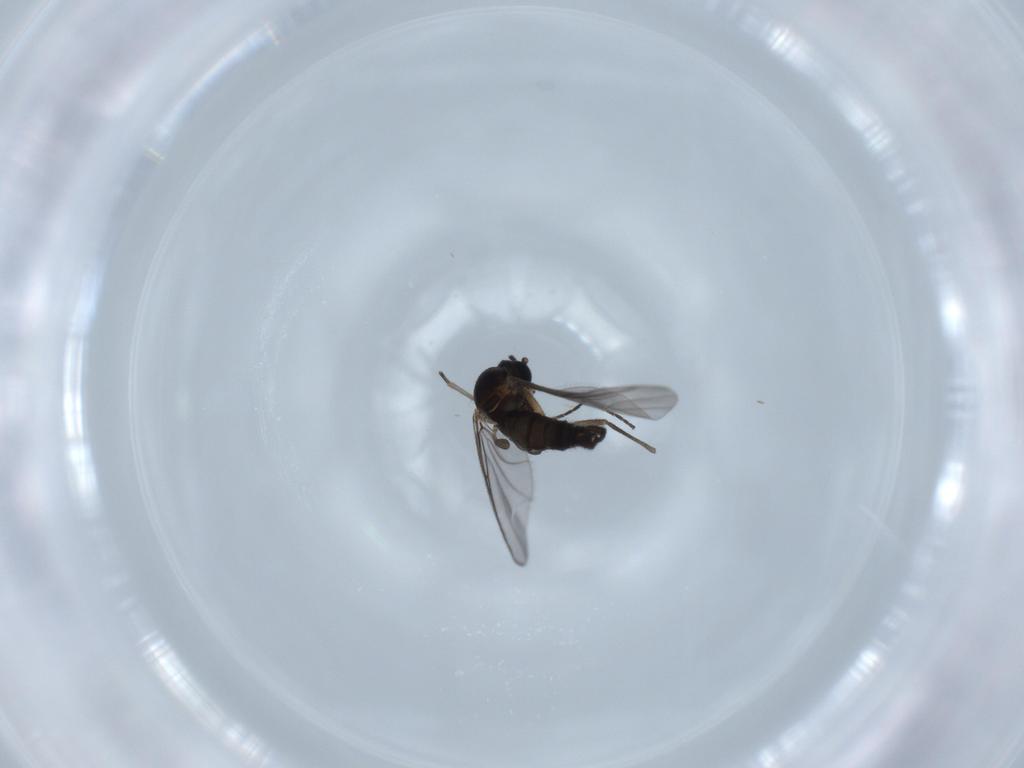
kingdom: Animalia
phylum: Arthropoda
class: Insecta
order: Diptera
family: Sciaridae
